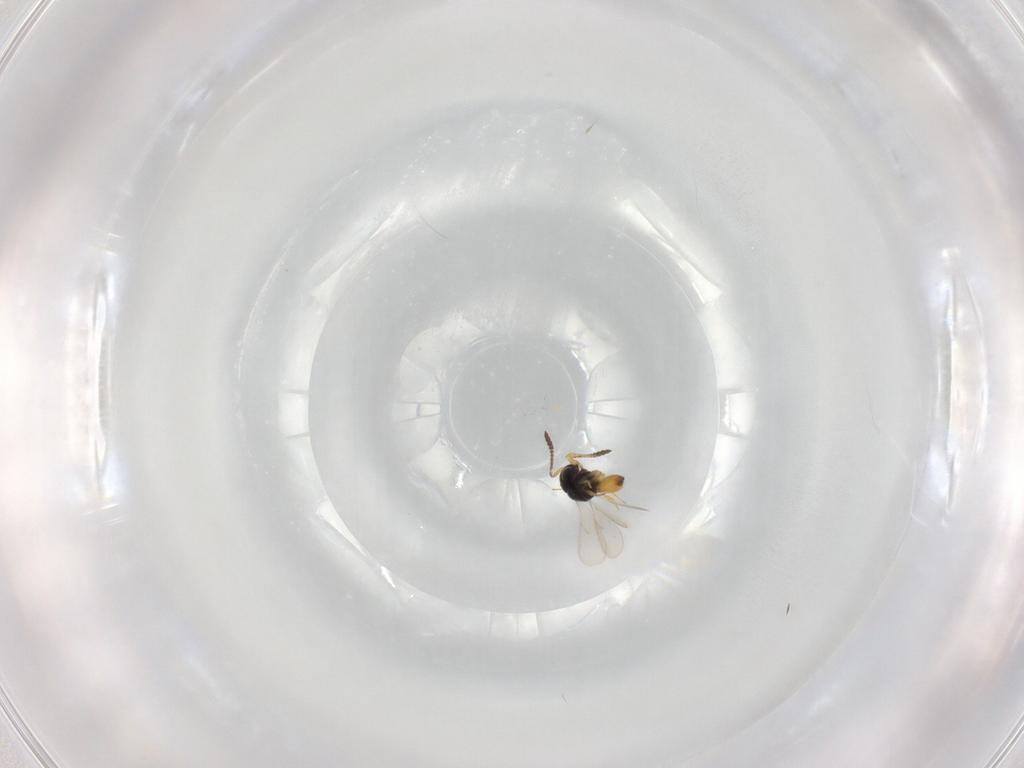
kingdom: Animalia
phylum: Arthropoda
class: Insecta
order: Hymenoptera
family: Scelionidae
